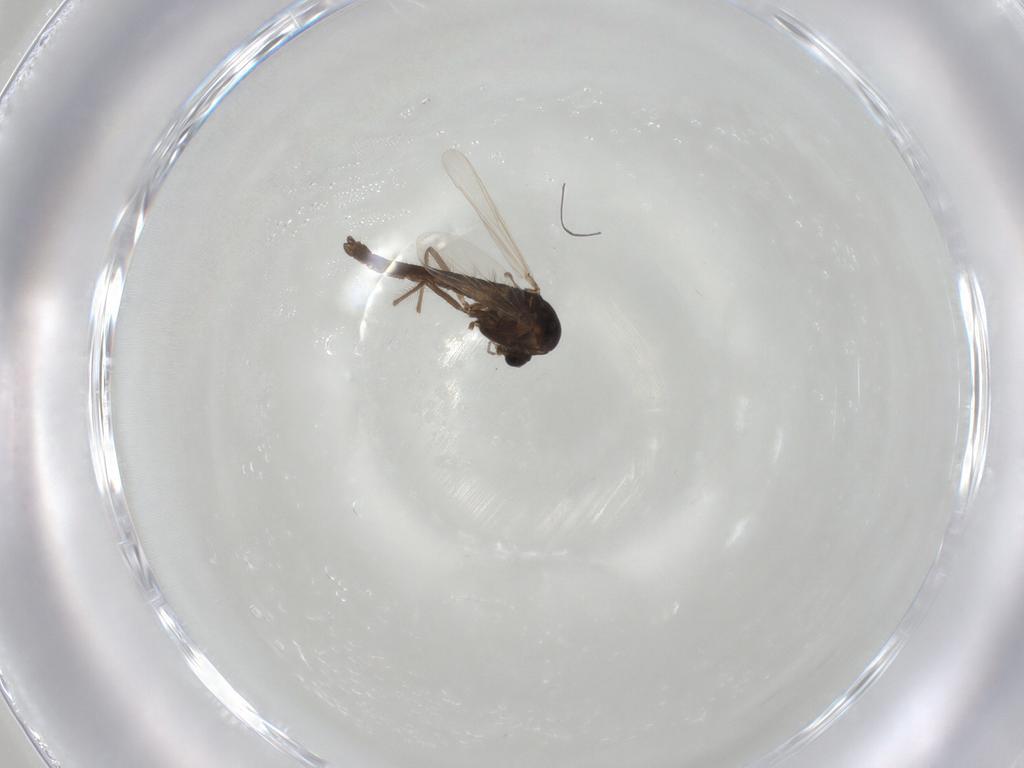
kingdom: Animalia
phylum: Arthropoda
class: Insecta
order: Diptera
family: Chironomidae
